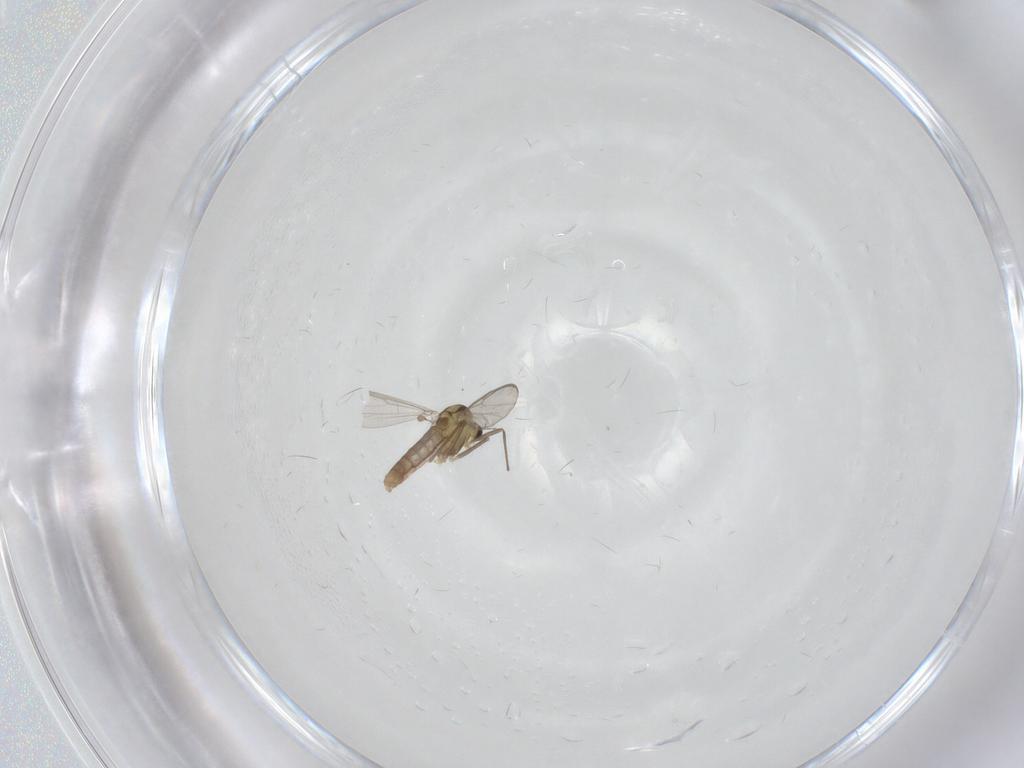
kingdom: Animalia
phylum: Arthropoda
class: Insecta
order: Diptera
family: Chironomidae
